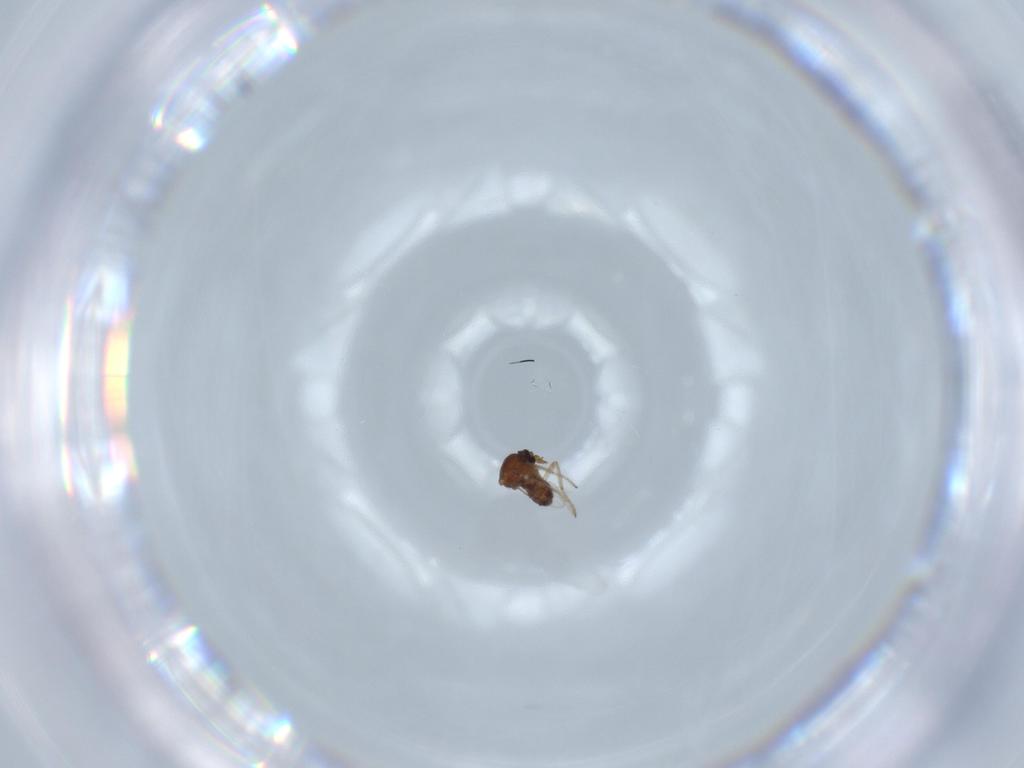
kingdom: Animalia
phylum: Arthropoda
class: Insecta
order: Diptera
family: Ceratopogonidae
